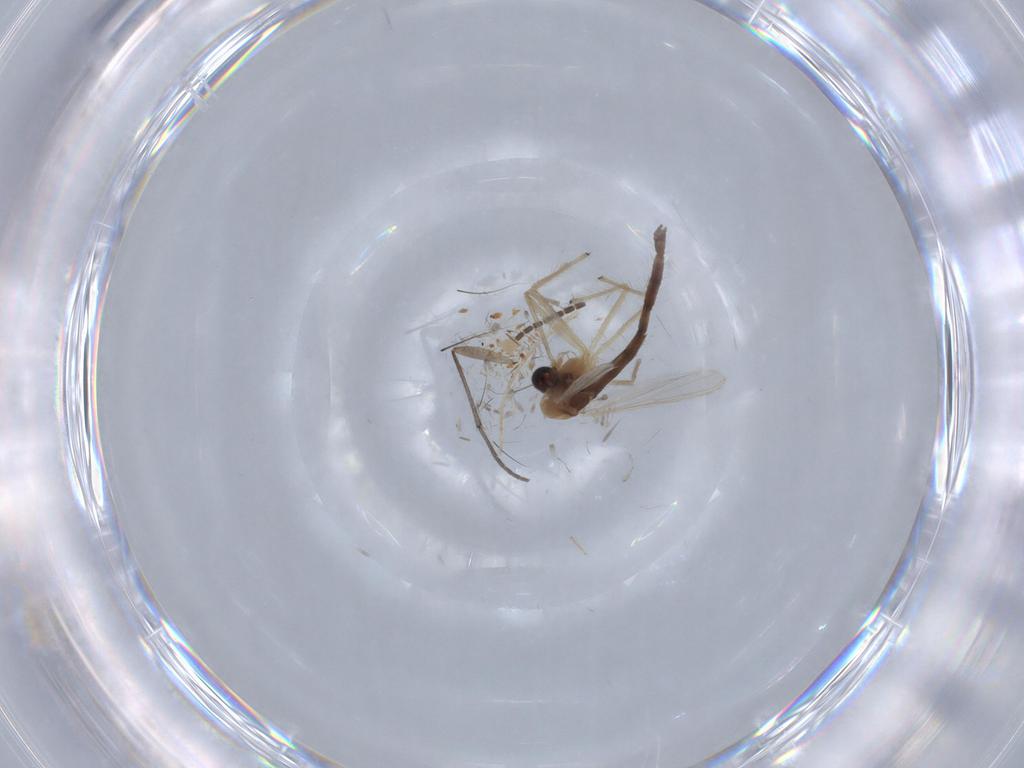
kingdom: Animalia
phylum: Arthropoda
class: Insecta
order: Diptera
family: Chironomidae
